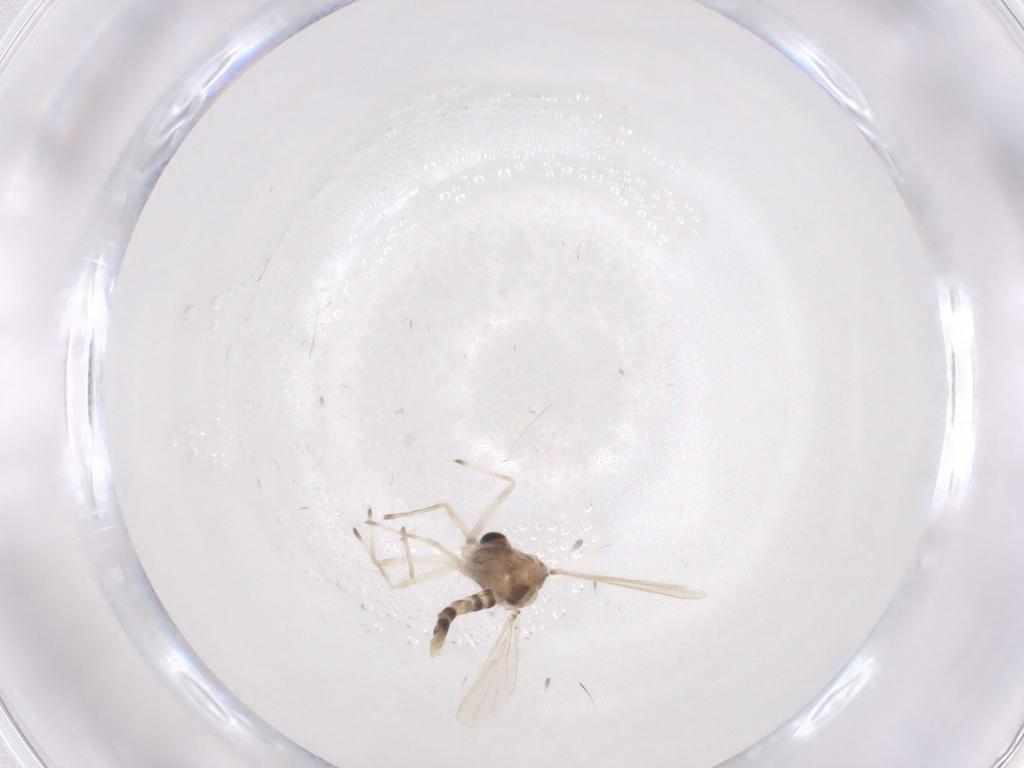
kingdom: Animalia
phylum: Arthropoda
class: Insecta
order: Diptera
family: Chironomidae
